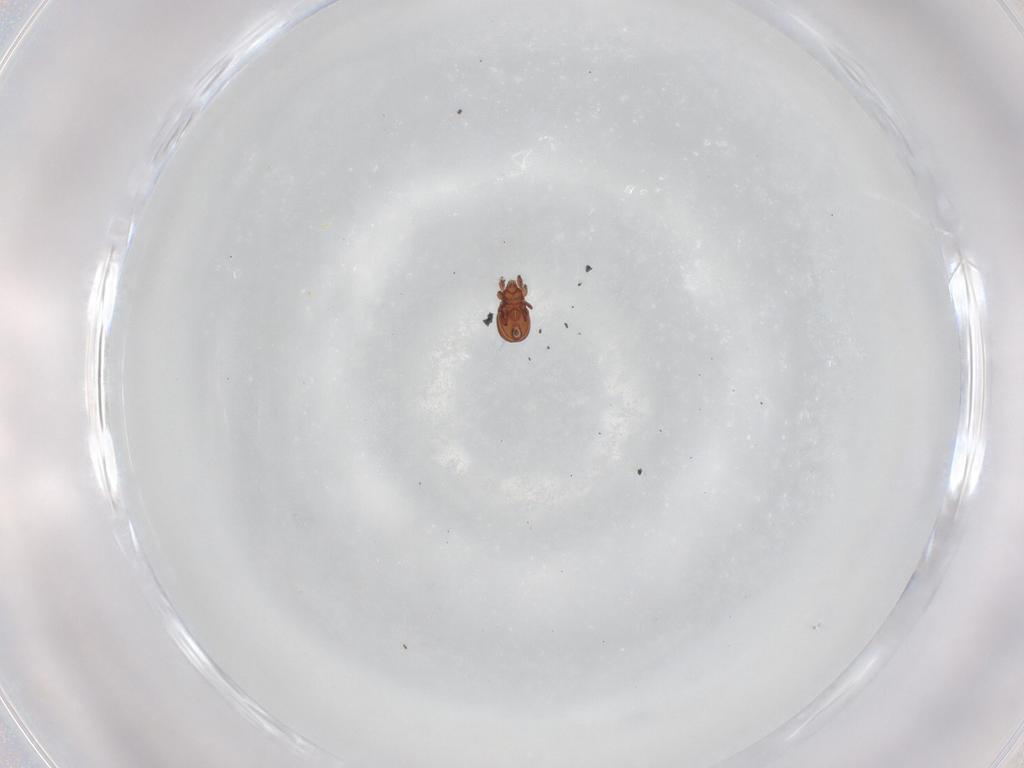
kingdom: Animalia
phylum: Arthropoda
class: Arachnida
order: Sarcoptiformes
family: Eremaeidae
